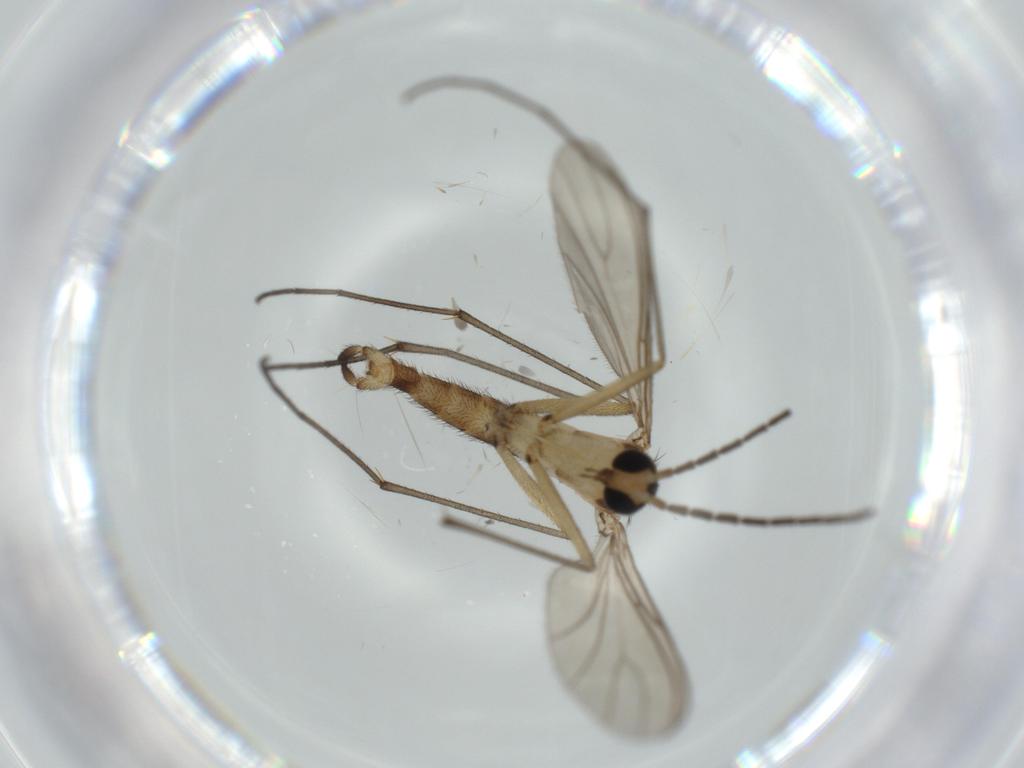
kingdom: Animalia
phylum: Arthropoda
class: Insecta
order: Diptera
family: Sciaridae
